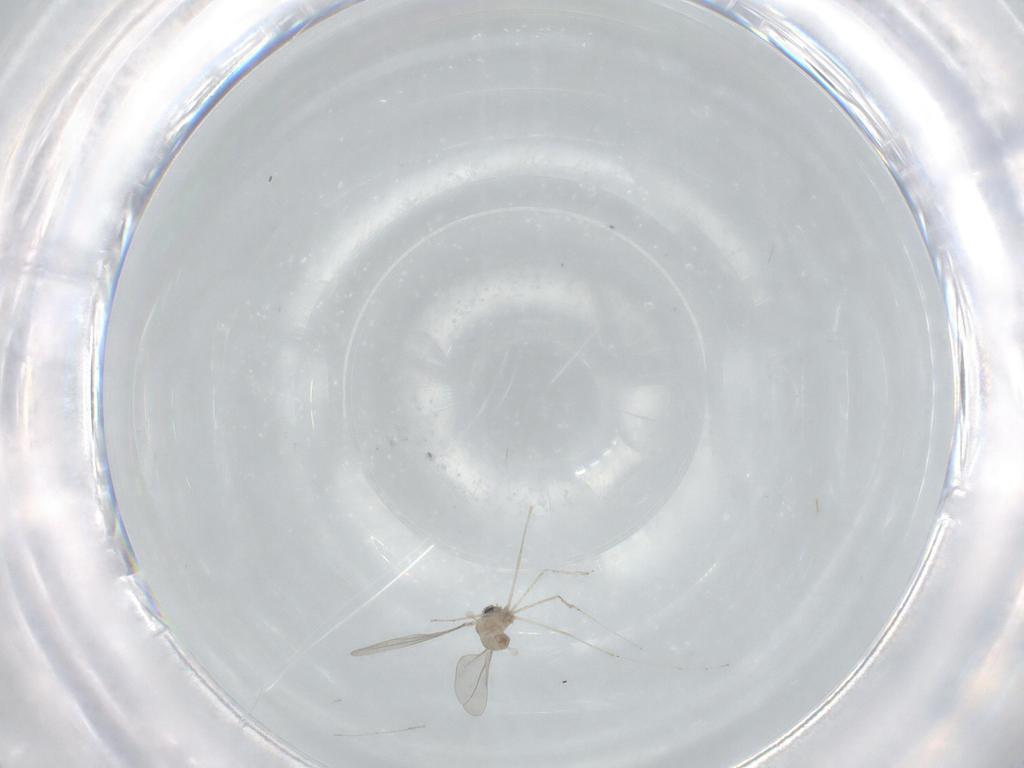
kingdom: Animalia
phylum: Arthropoda
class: Insecta
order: Diptera
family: Cecidomyiidae
